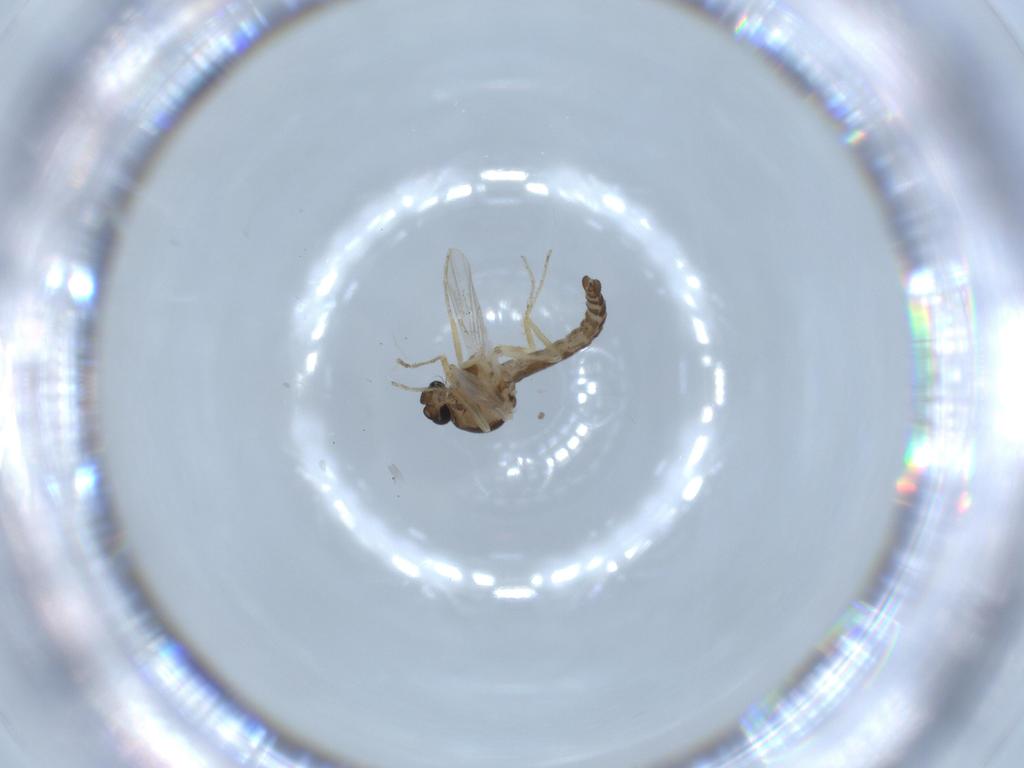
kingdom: Animalia
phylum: Arthropoda
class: Insecta
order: Diptera
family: Ceratopogonidae
